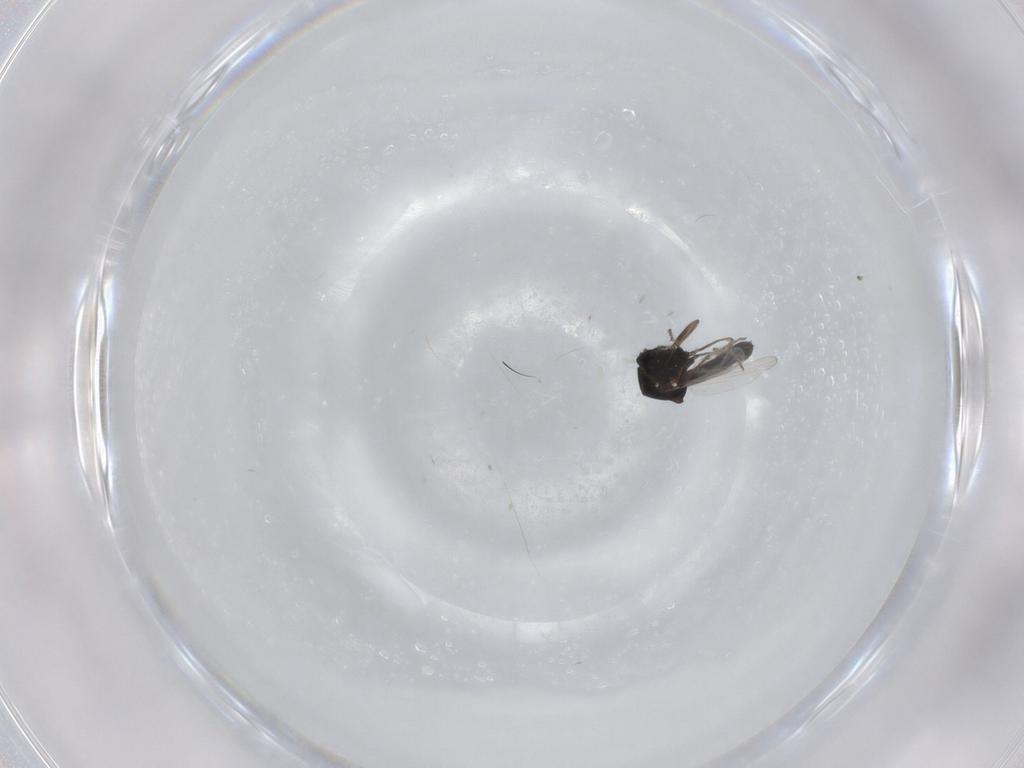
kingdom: Animalia
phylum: Arthropoda
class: Insecta
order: Diptera
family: Ceratopogonidae
